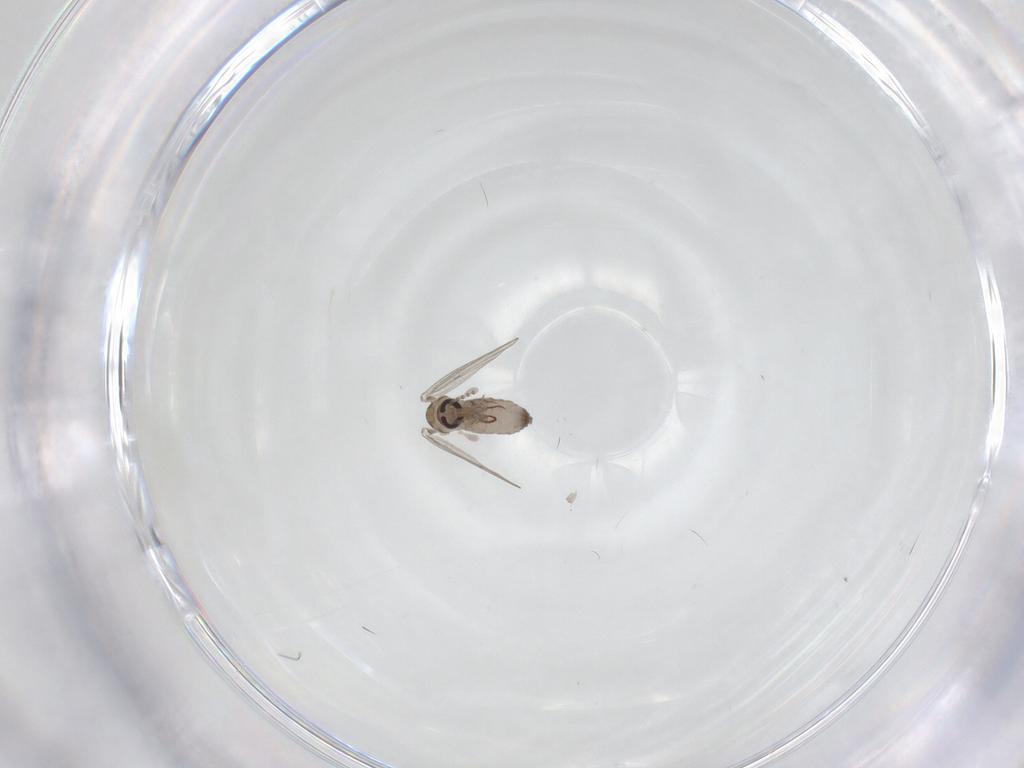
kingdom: Animalia
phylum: Arthropoda
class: Insecta
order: Diptera
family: Psychodidae
